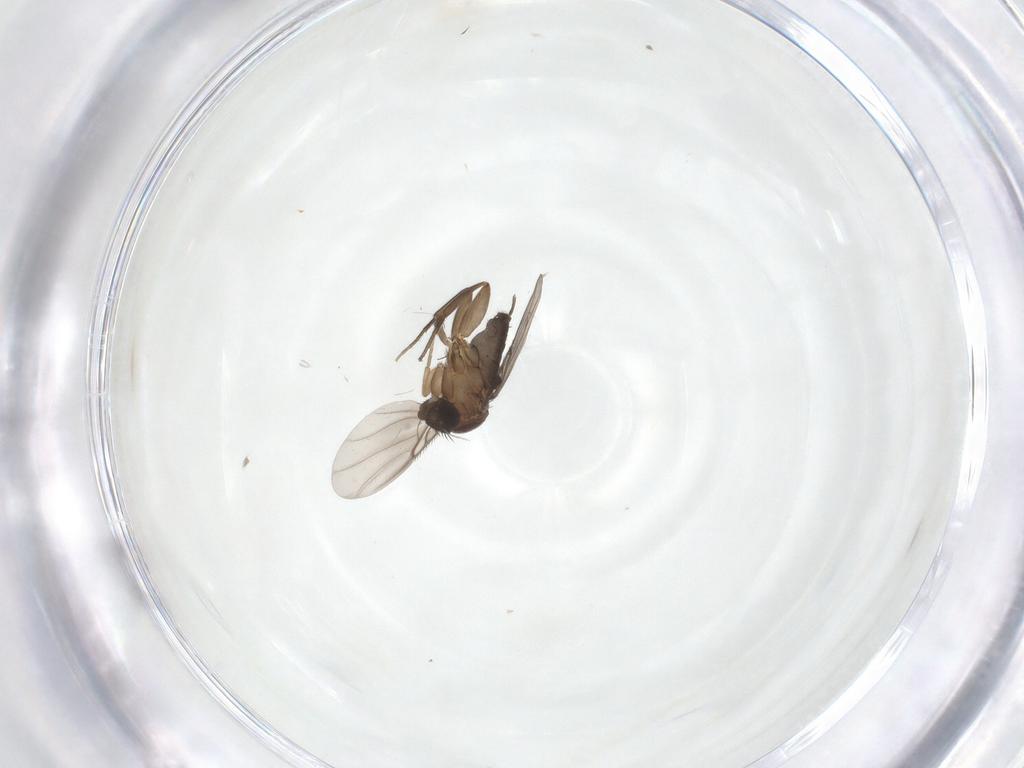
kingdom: Animalia
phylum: Arthropoda
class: Insecta
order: Diptera
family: Phoridae
